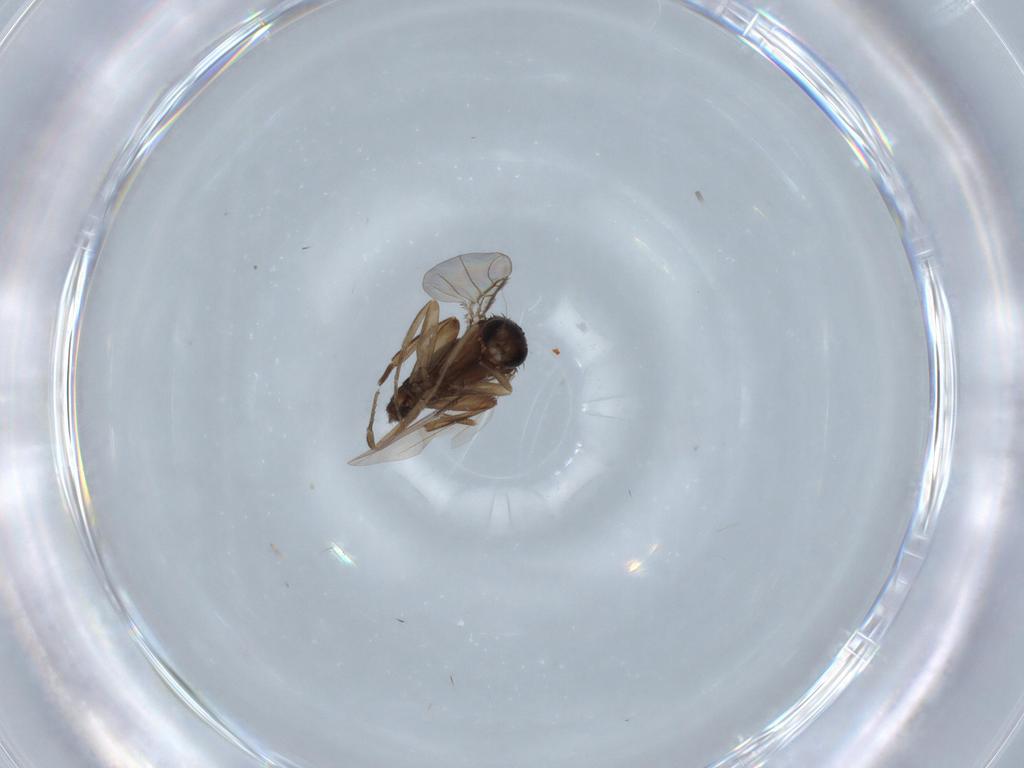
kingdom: Animalia
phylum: Arthropoda
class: Insecta
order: Diptera
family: Phoridae
